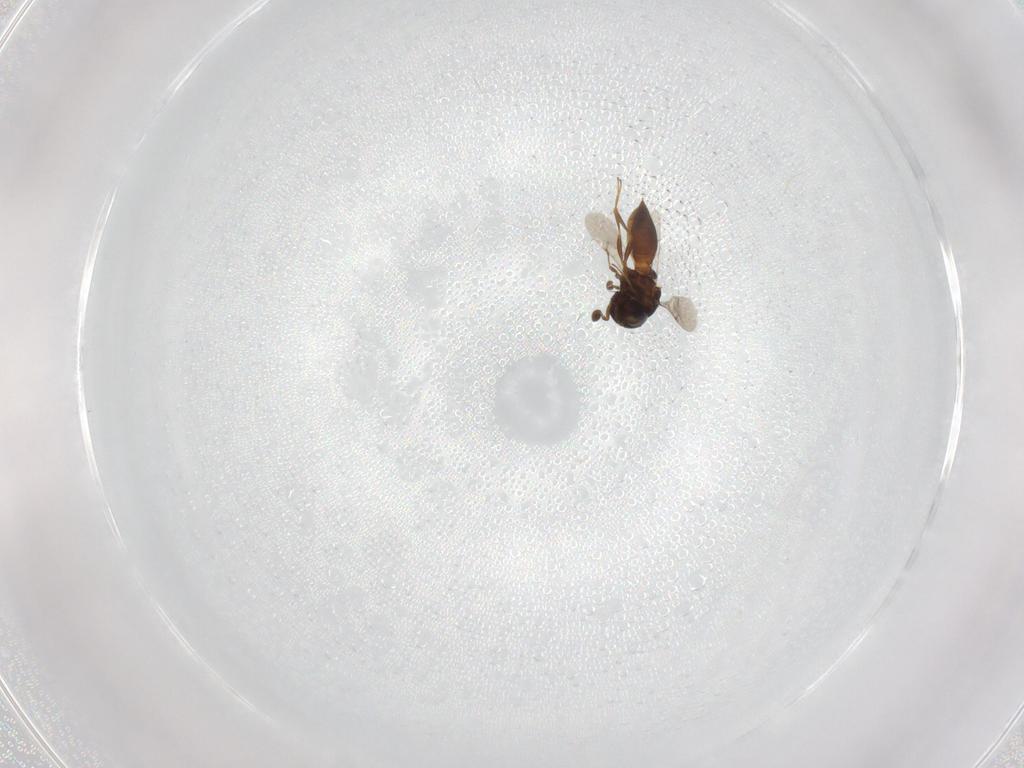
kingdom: Animalia
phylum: Arthropoda
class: Insecta
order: Hymenoptera
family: Scelionidae
